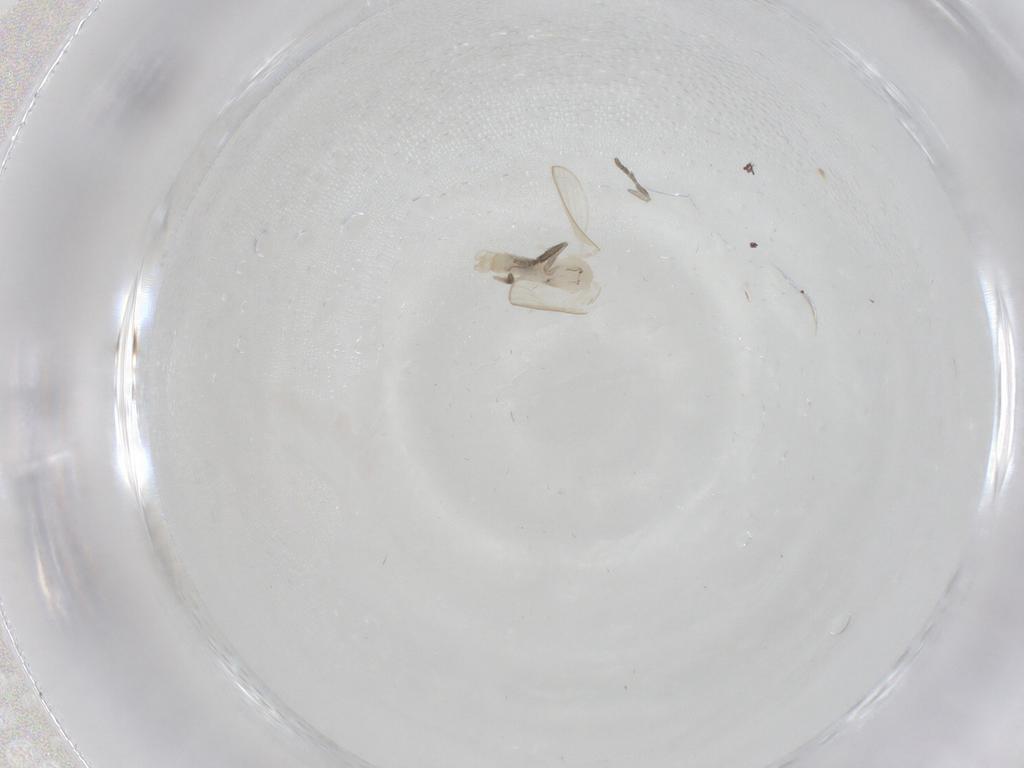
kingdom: Animalia
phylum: Arthropoda
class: Insecta
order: Diptera
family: Psychodidae
